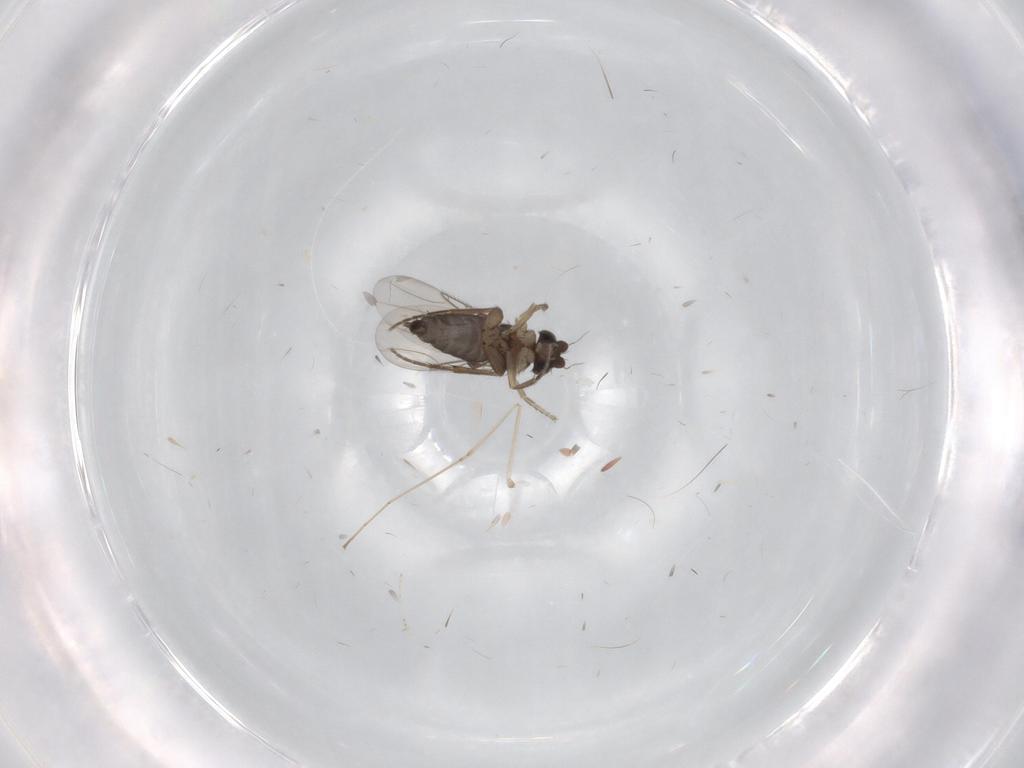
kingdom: Animalia
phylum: Arthropoda
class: Insecta
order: Diptera
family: Phoridae
